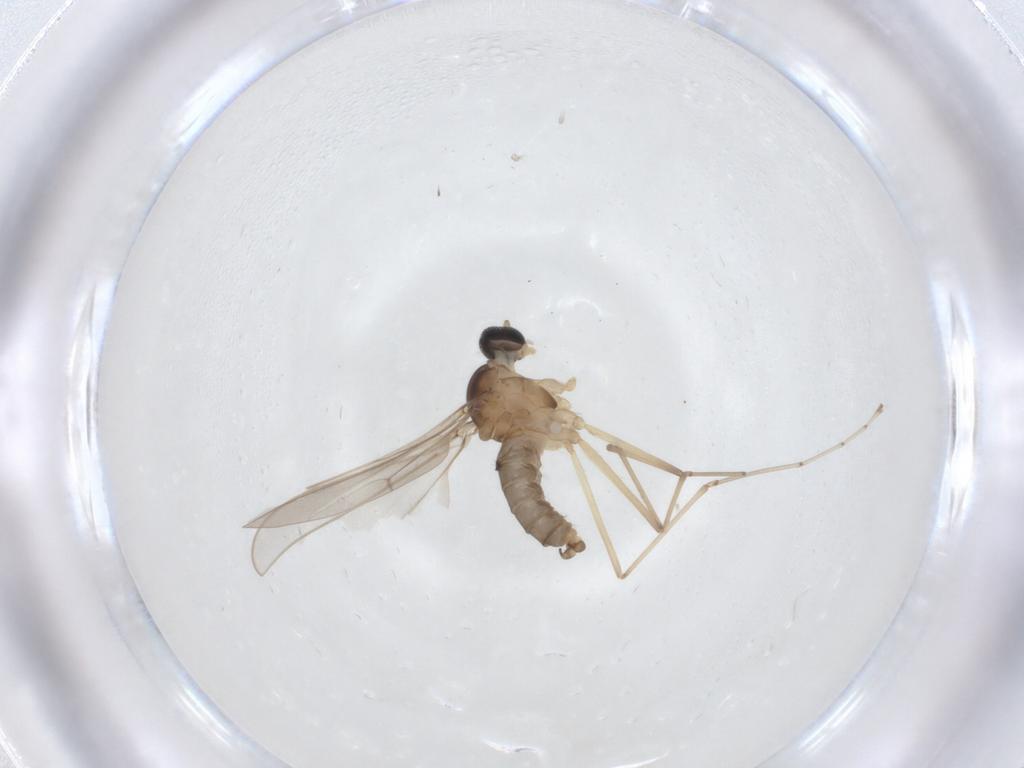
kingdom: Animalia
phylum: Arthropoda
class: Insecta
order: Diptera
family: Cecidomyiidae
